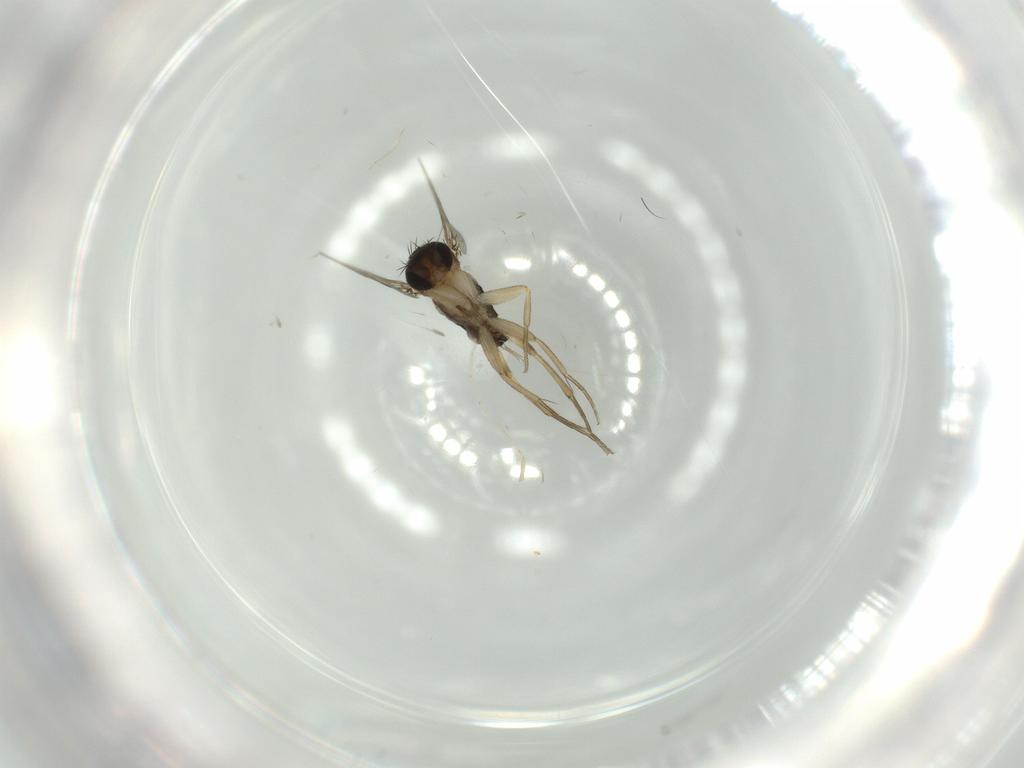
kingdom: Animalia
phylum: Arthropoda
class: Insecta
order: Diptera
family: Phoridae
